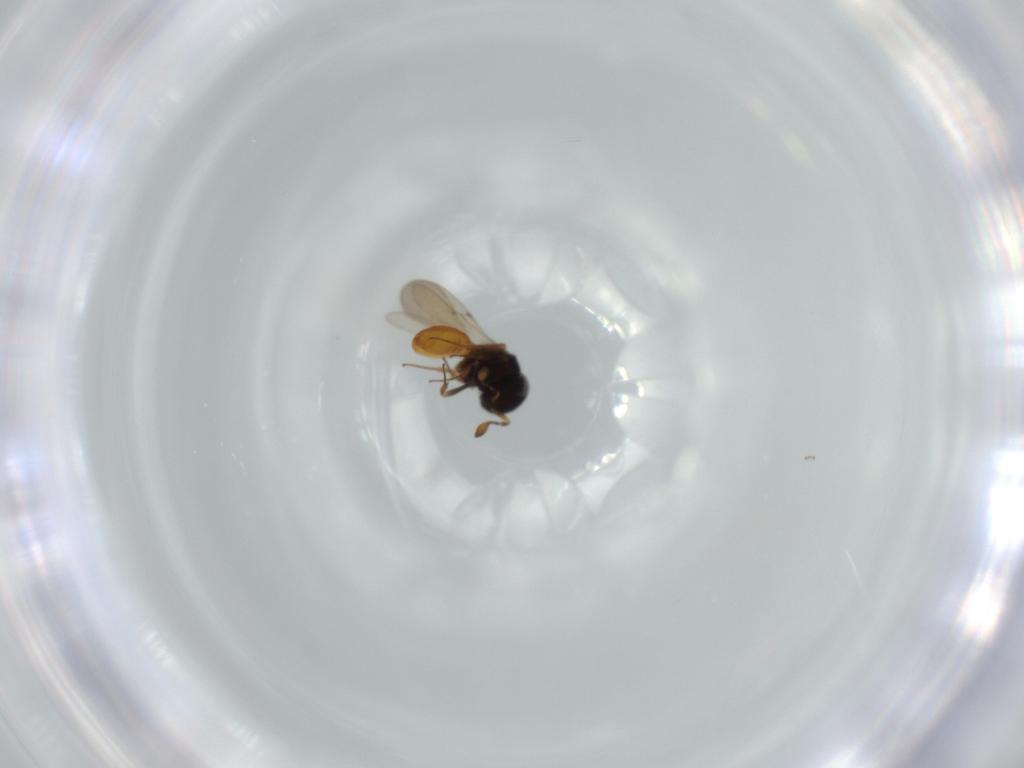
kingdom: Animalia
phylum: Arthropoda
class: Insecta
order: Hymenoptera
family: Scelionidae
